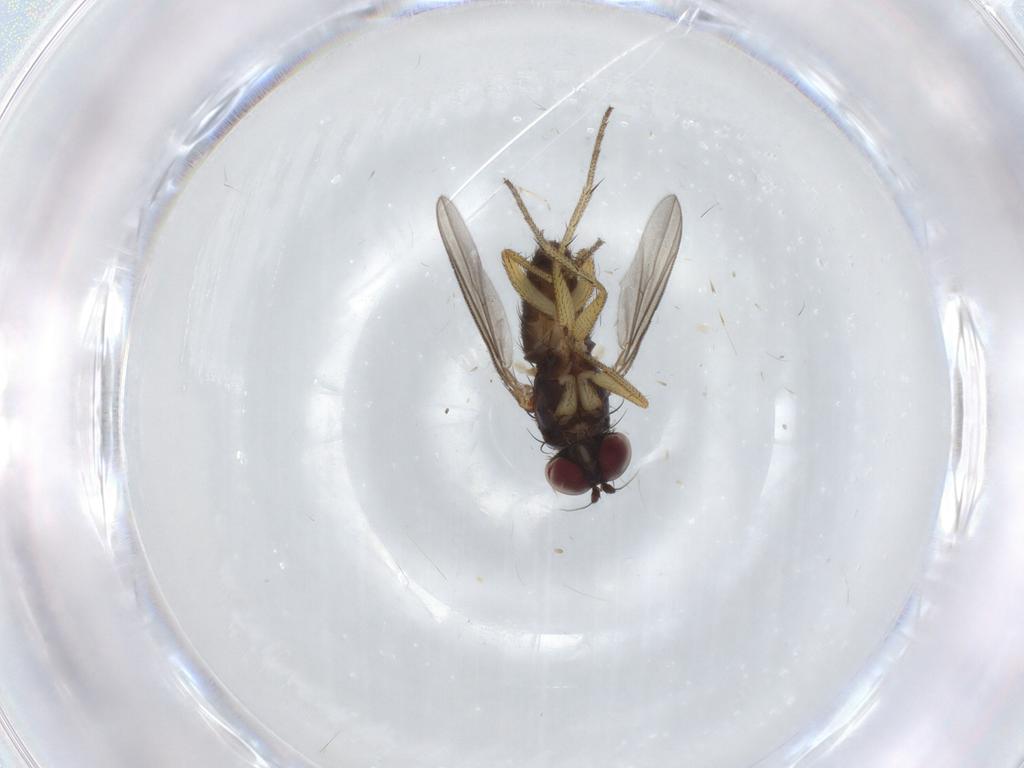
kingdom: Animalia
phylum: Arthropoda
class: Insecta
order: Diptera
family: Dolichopodidae
